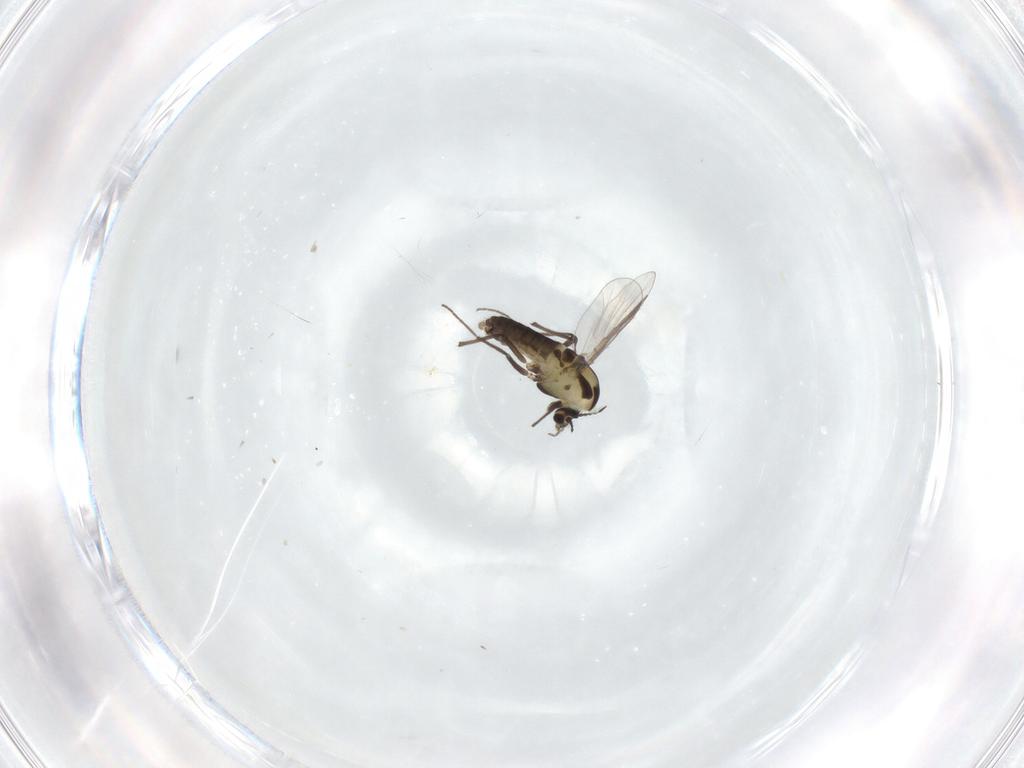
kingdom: Animalia
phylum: Arthropoda
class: Insecta
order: Diptera
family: Chironomidae
